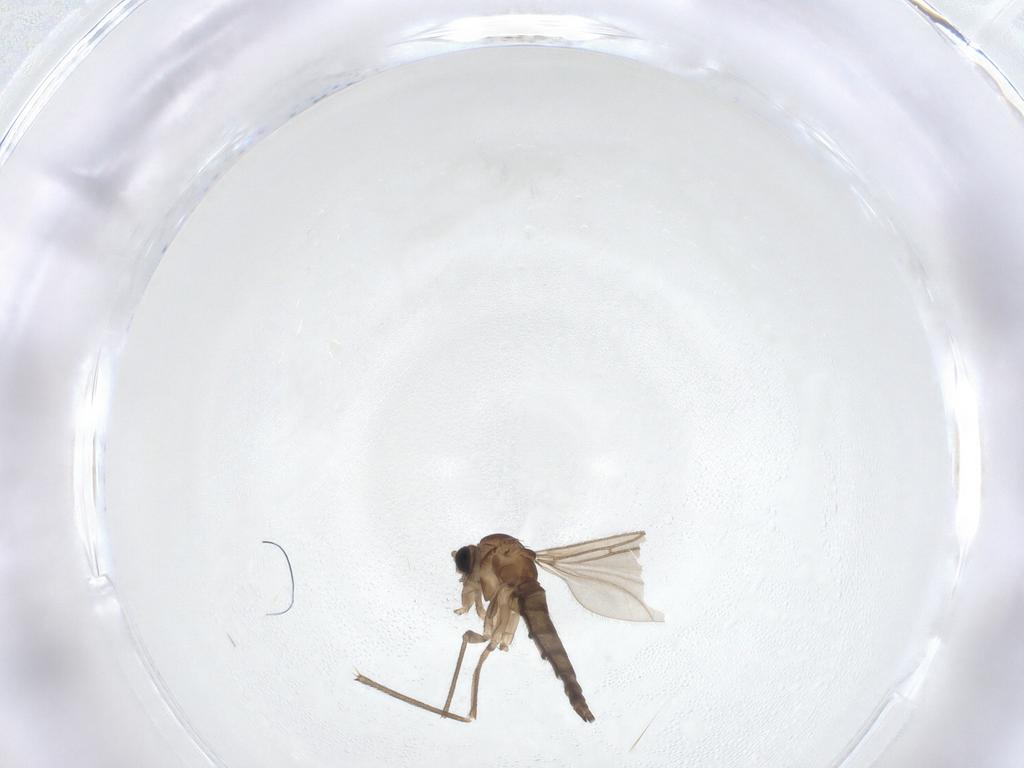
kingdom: Animalia
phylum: Arthropoda
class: Insecta
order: Diptera
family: Sciaridae
